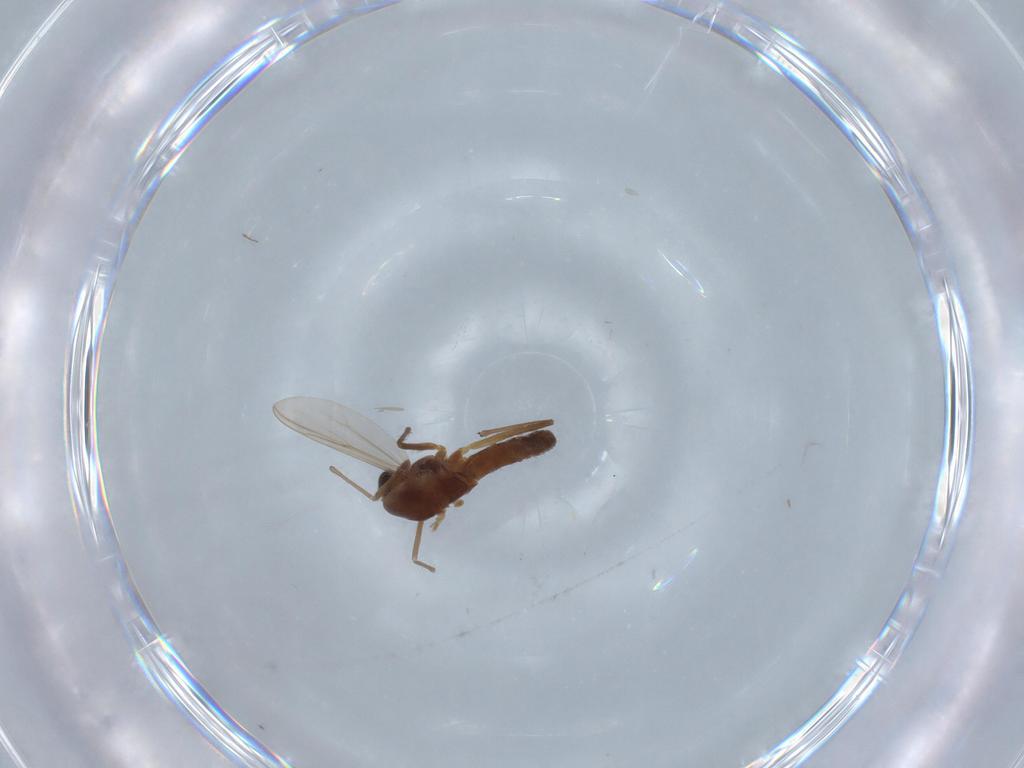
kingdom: Animalia
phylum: Arthropoda
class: Insecta
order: Diptera
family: Chironomidae
